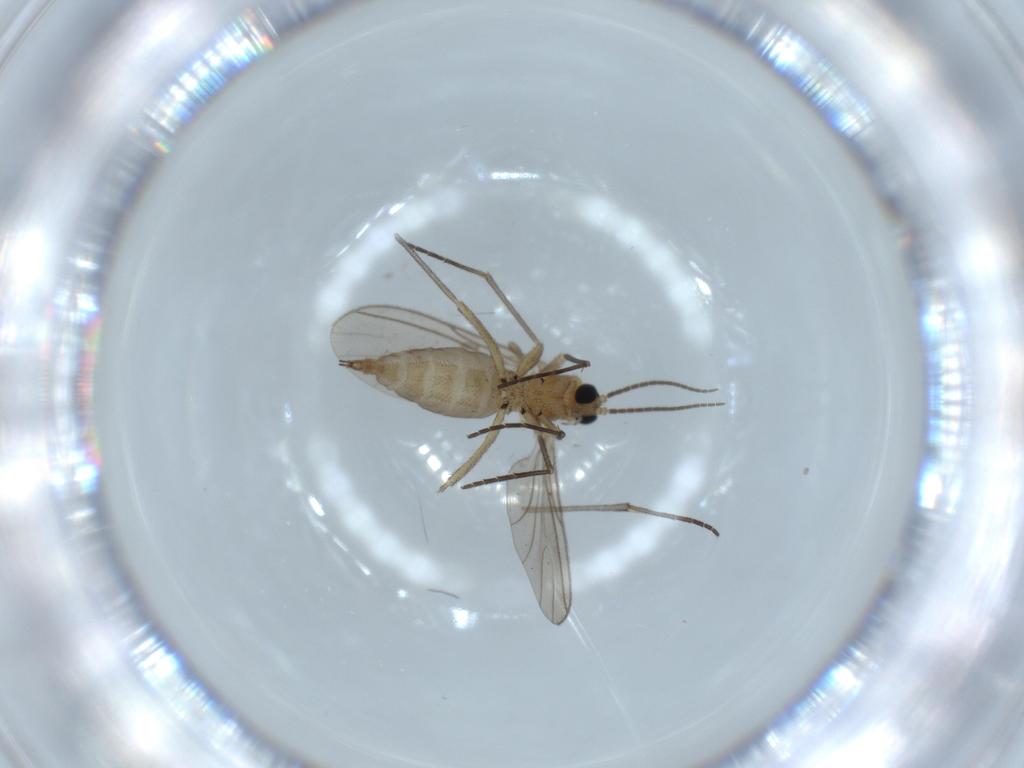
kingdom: Animalia
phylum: Arthropoda
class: Insecta
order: Diptera
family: Sciaridae
